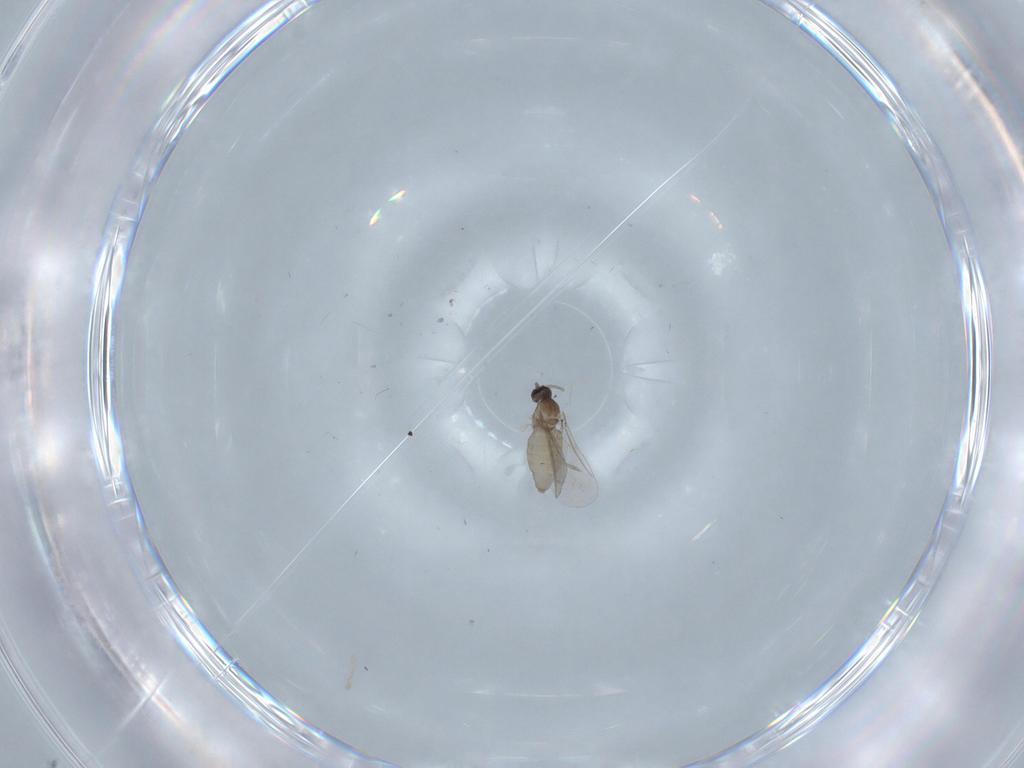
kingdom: Animalia
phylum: Arthropoda
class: Insecta
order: Diptera
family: Cecidomyiidae
